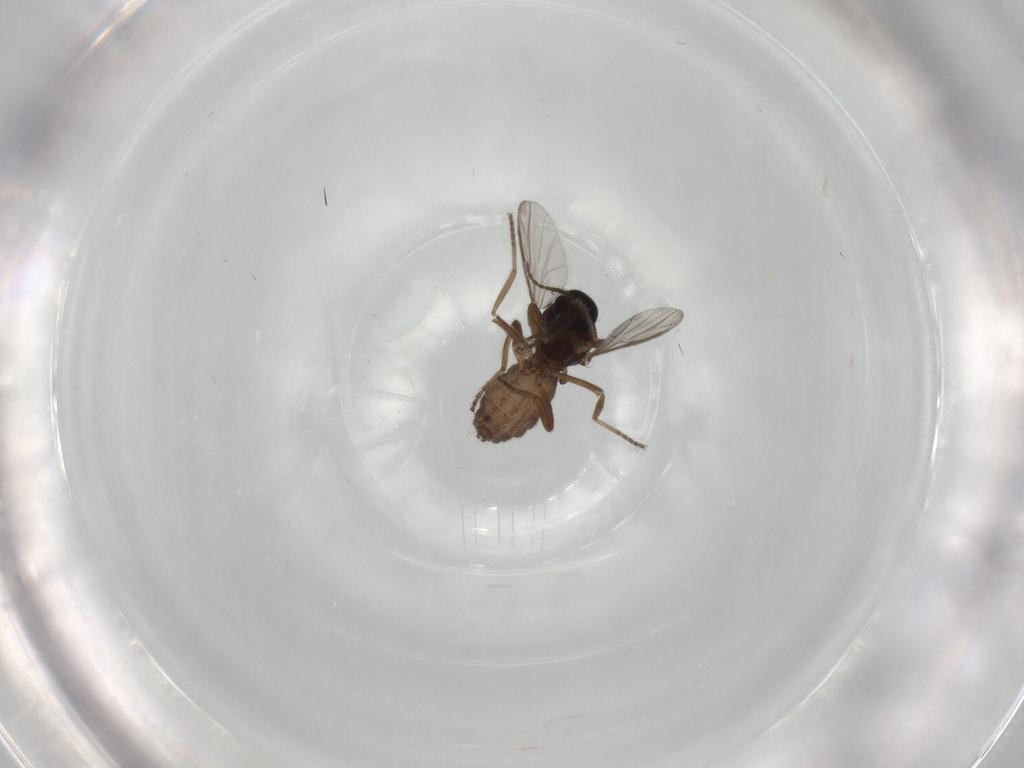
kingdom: Animalia
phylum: Arthropoda
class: Insecta
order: Diptera
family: Ceratopogonidae
